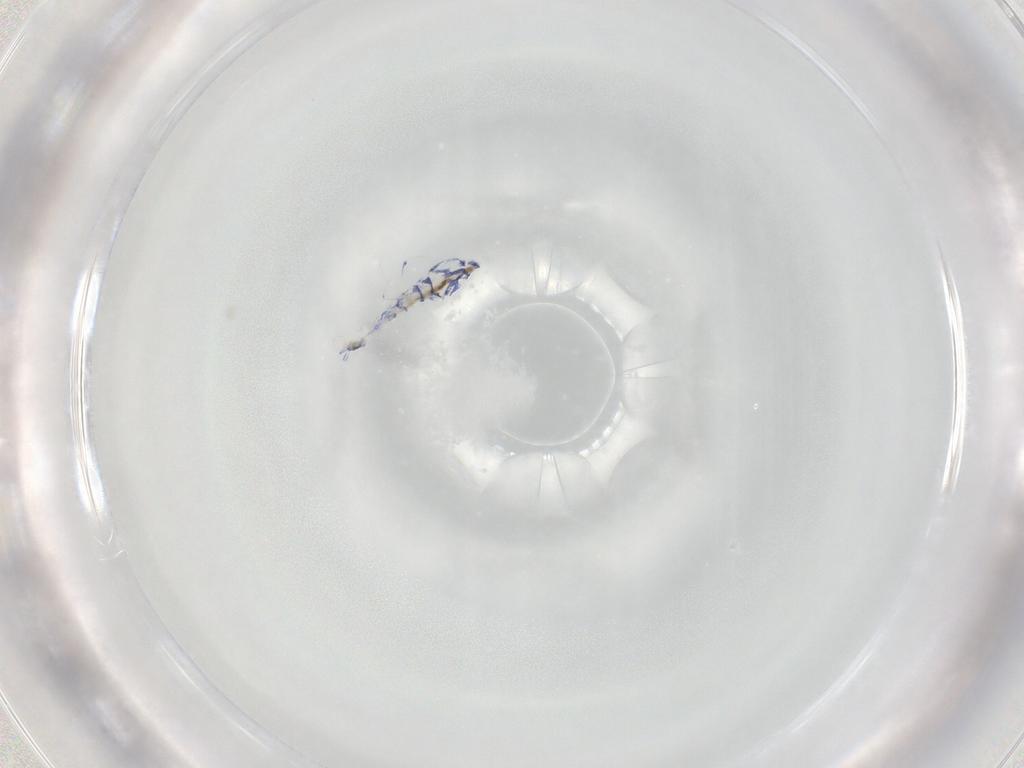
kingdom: Animalia
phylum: Arthropoda
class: Collembola
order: Entomobryomorpha
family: Entomobryidae
